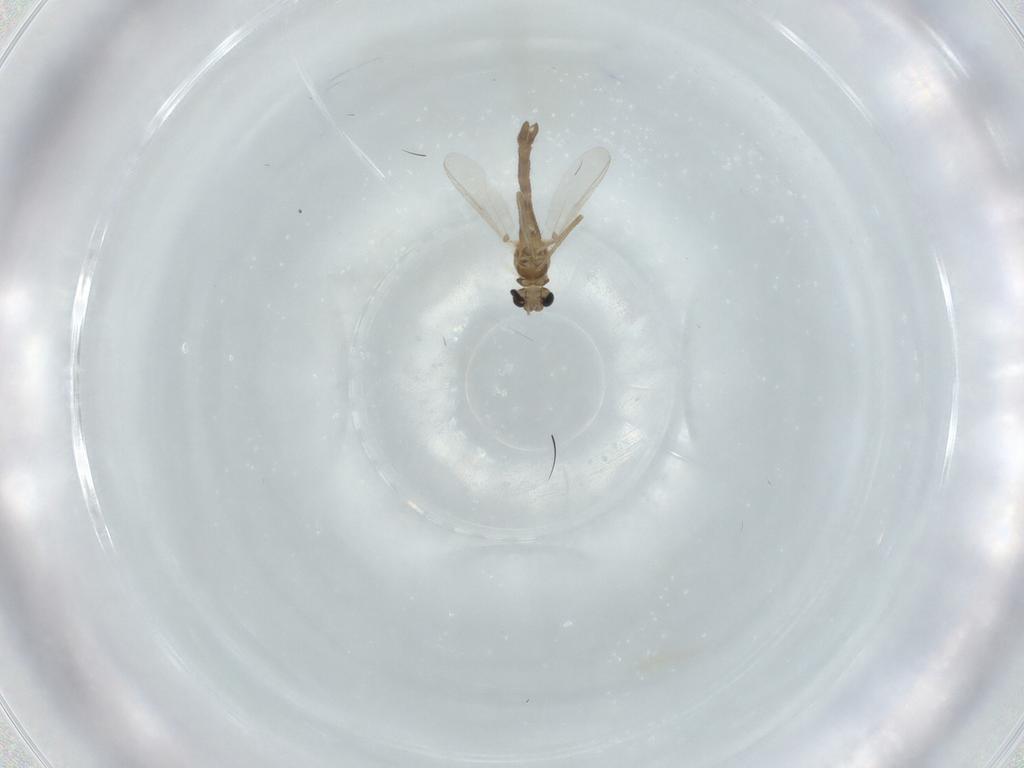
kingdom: Animalia
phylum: Arthropoda
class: Insecta
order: Diptera
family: Chironomidae
